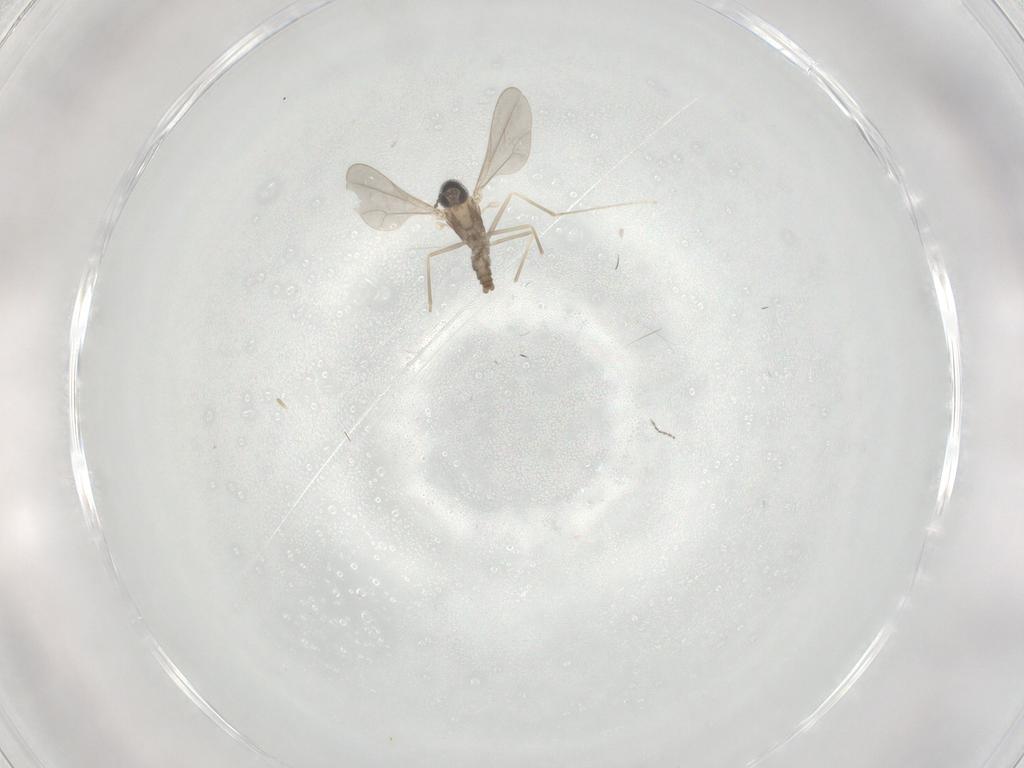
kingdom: Animalia
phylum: Arthropoda
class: Insecta
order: Diptera
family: Cecidomyiidae
